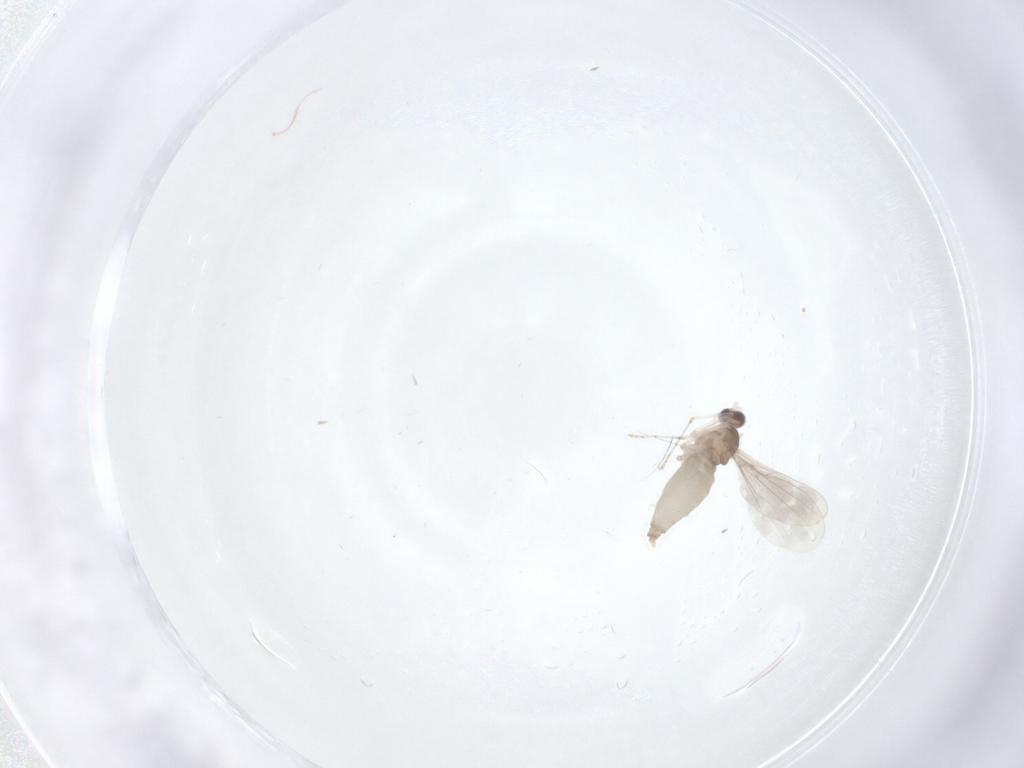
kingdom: Animalia
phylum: Arthropoda
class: Insecta
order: Diptera
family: Cecidomyiidae
